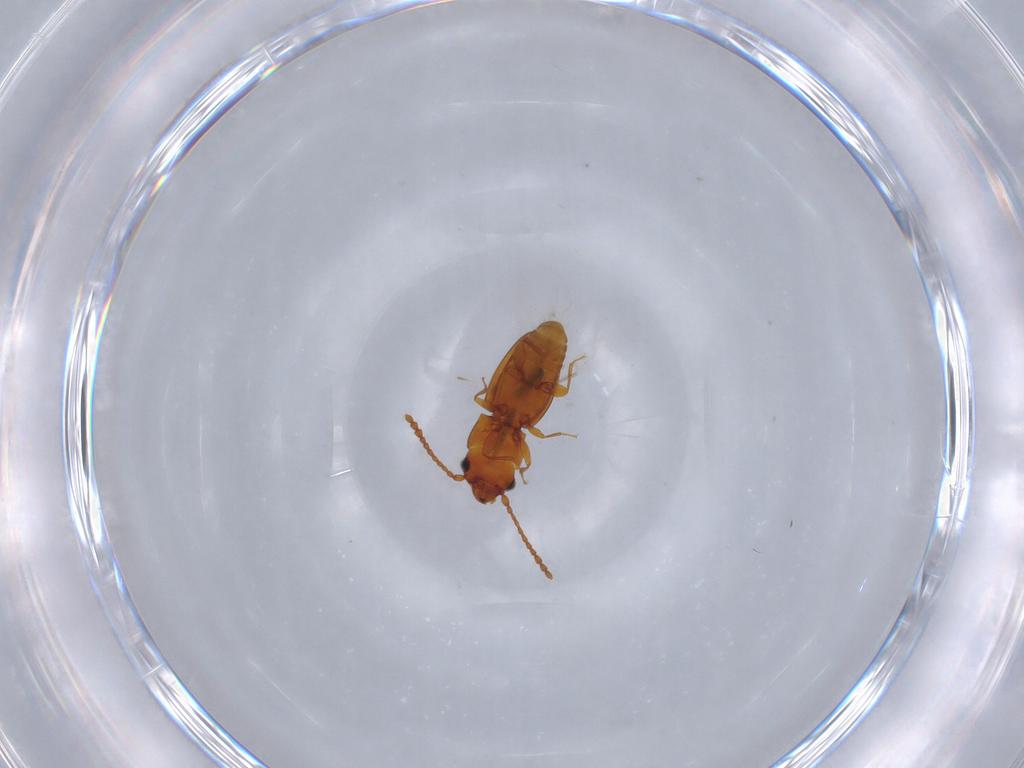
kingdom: Animalia
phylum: Arthropoda
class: Insecta
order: Coleoptera
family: Laemophloeidae
